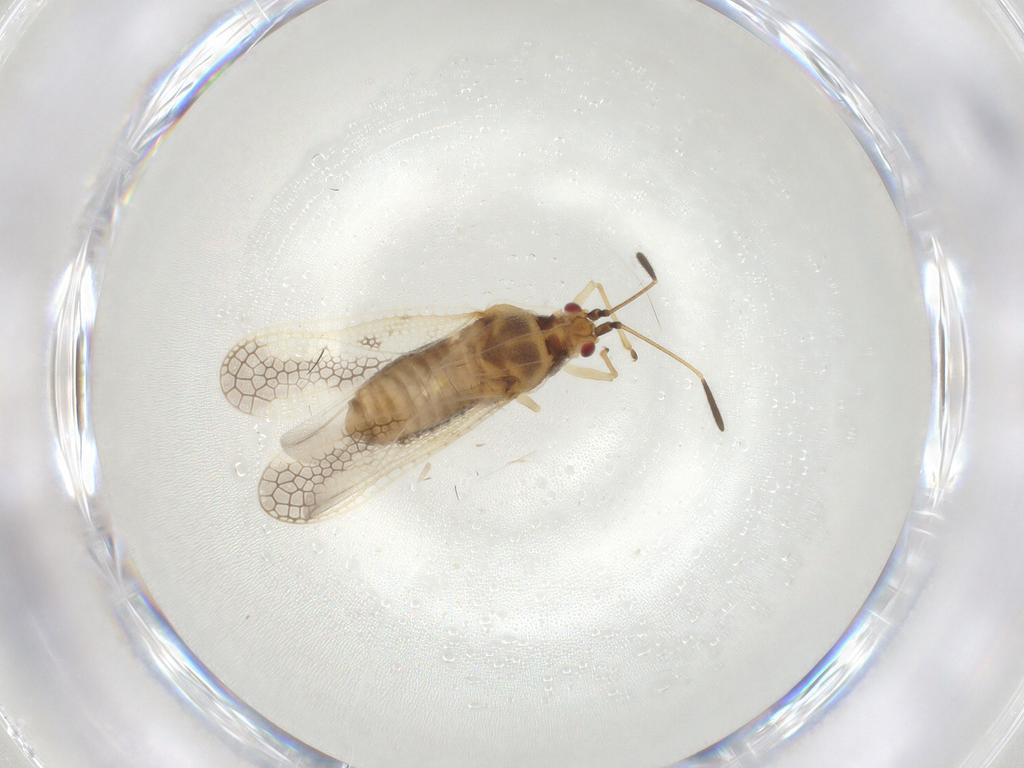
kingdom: Animalia
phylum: Arthropoda
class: Insecta
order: Hemiptera
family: Tingidae
